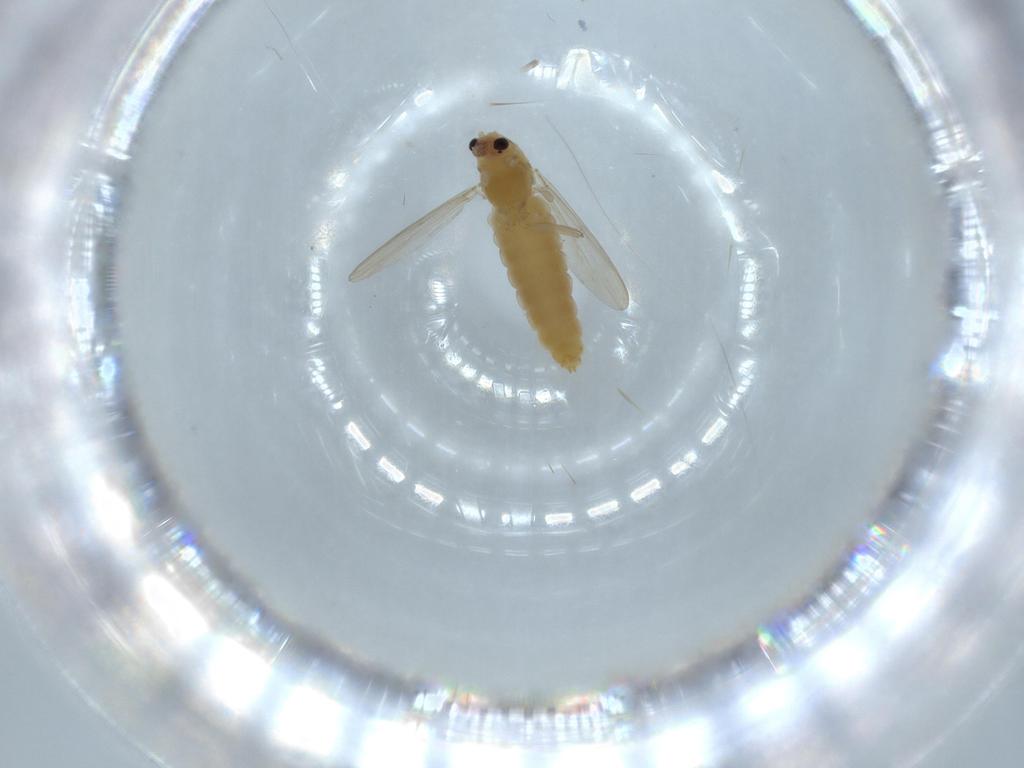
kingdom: Animalia
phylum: Arthropoda
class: Insecta
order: Diptera
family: Chironomidae
